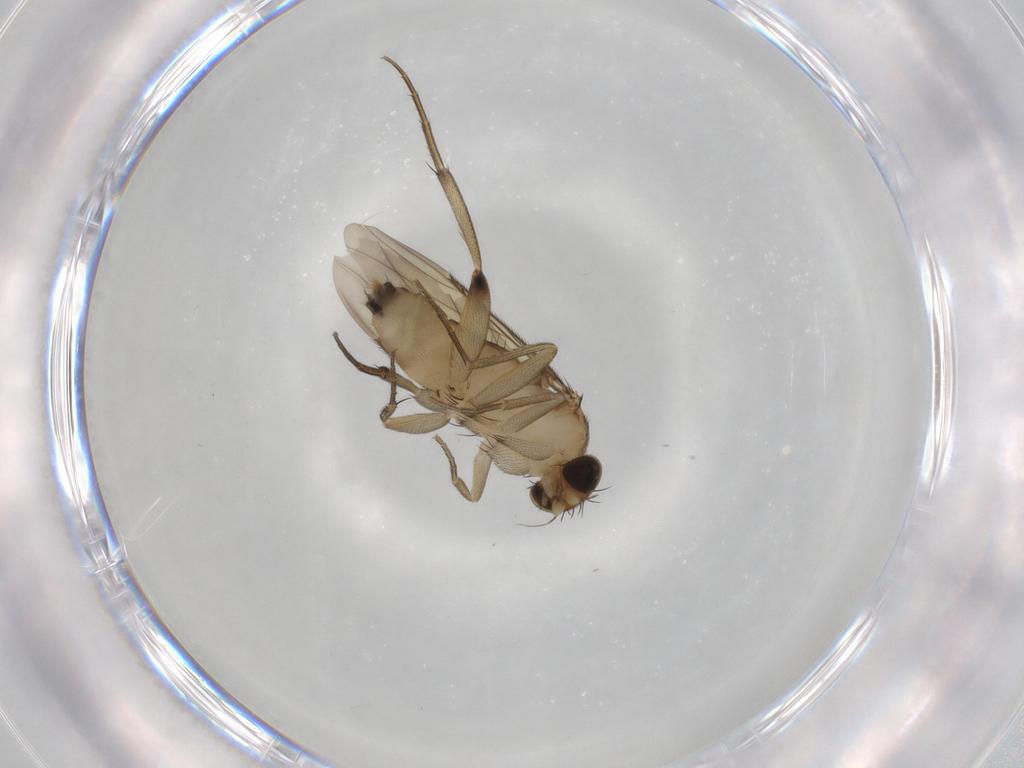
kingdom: Animalia
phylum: Arthropoda
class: Insecta
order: Diptera
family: Phoridae
